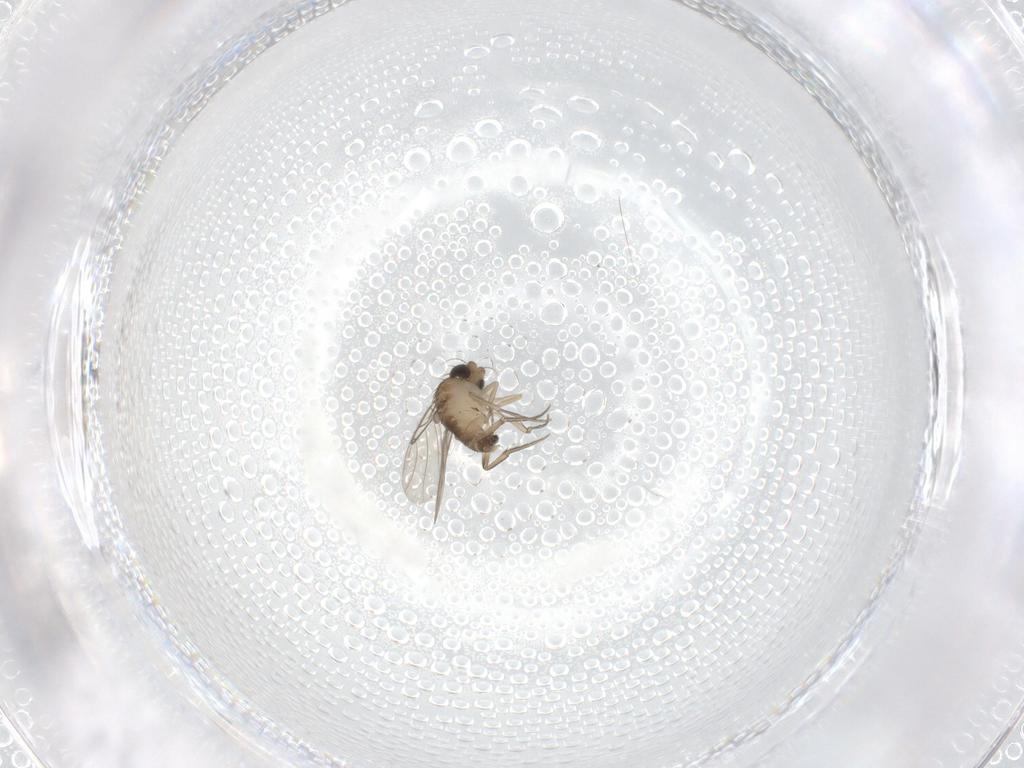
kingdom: Animalia
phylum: Arthropoda
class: Insecta
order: Diptera
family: Phoridae
